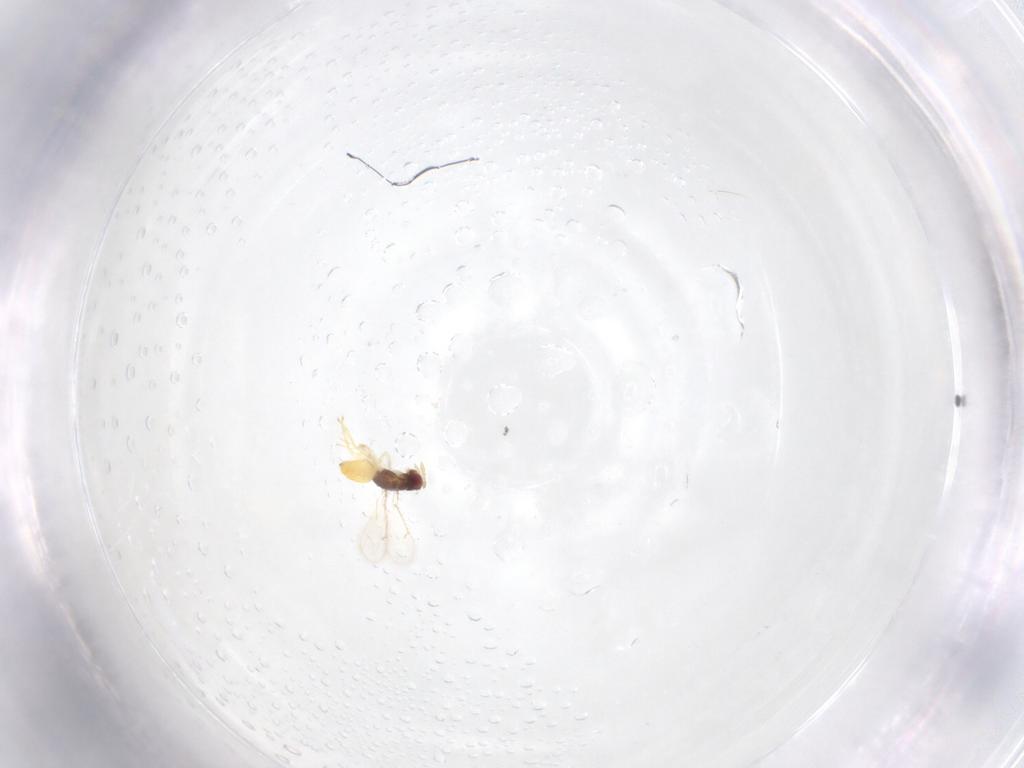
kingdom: Animalia
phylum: Arthropoda
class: Insecta
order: Hymenoptera
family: Eulophidae
